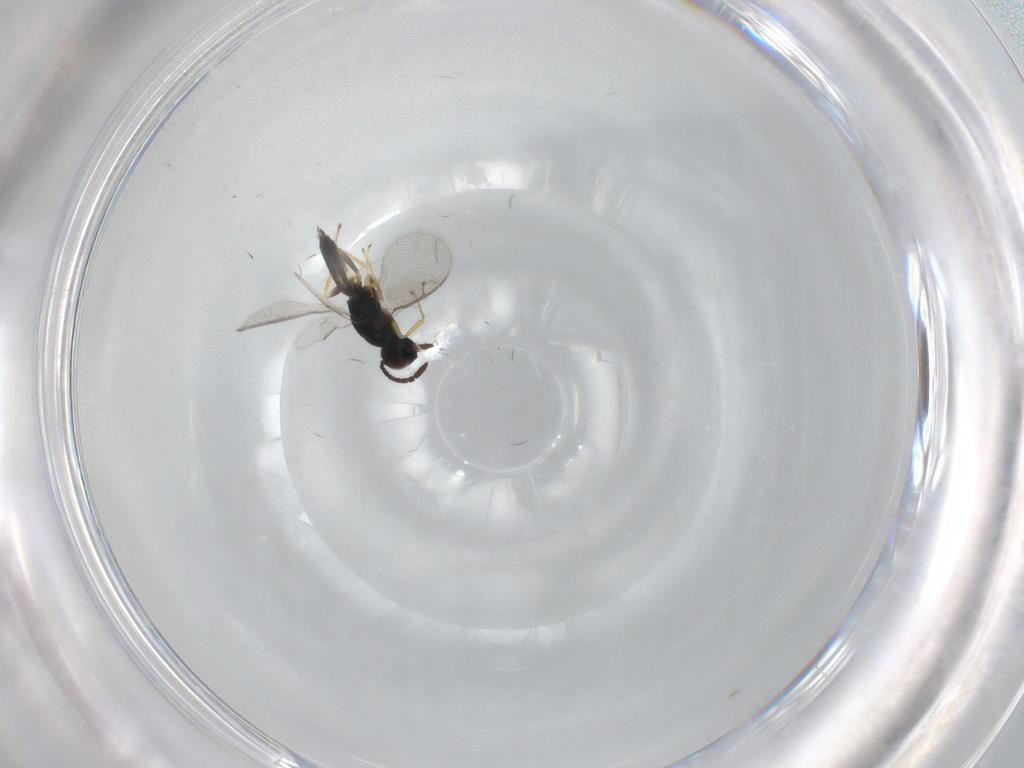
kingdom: Animalia
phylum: Arthropoda
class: Insecta
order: Hymenoptera
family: Pteromalidae
